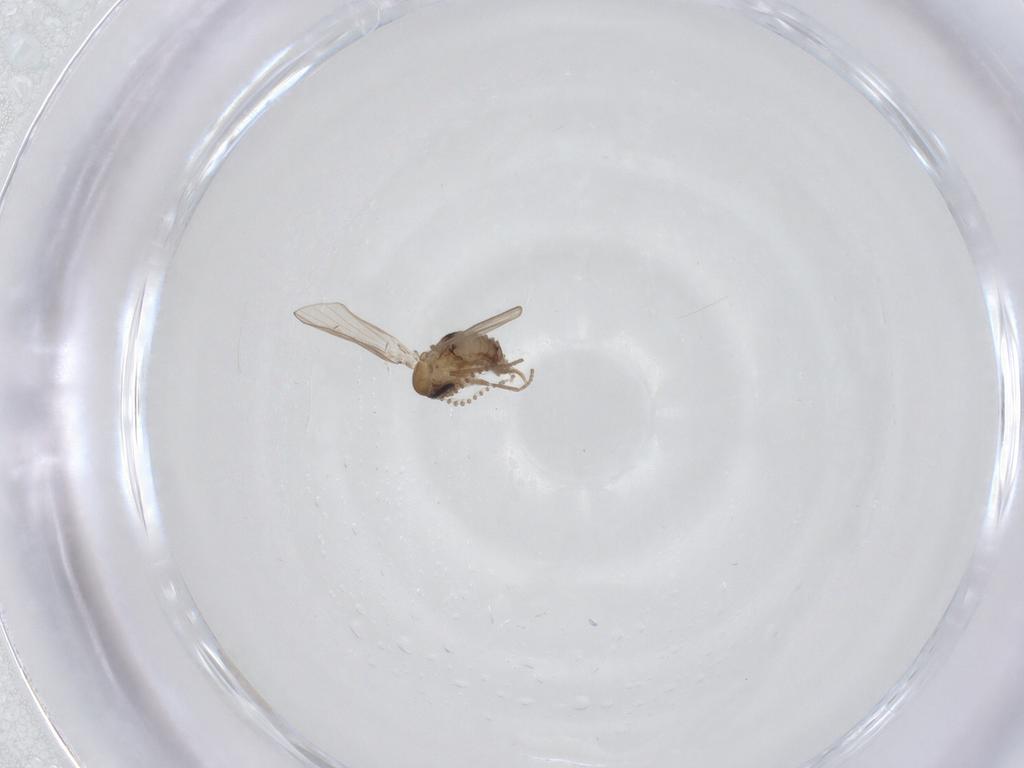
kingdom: Animalia
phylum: Arthropoda
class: Insecta
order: Diptera
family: Psychodidae
